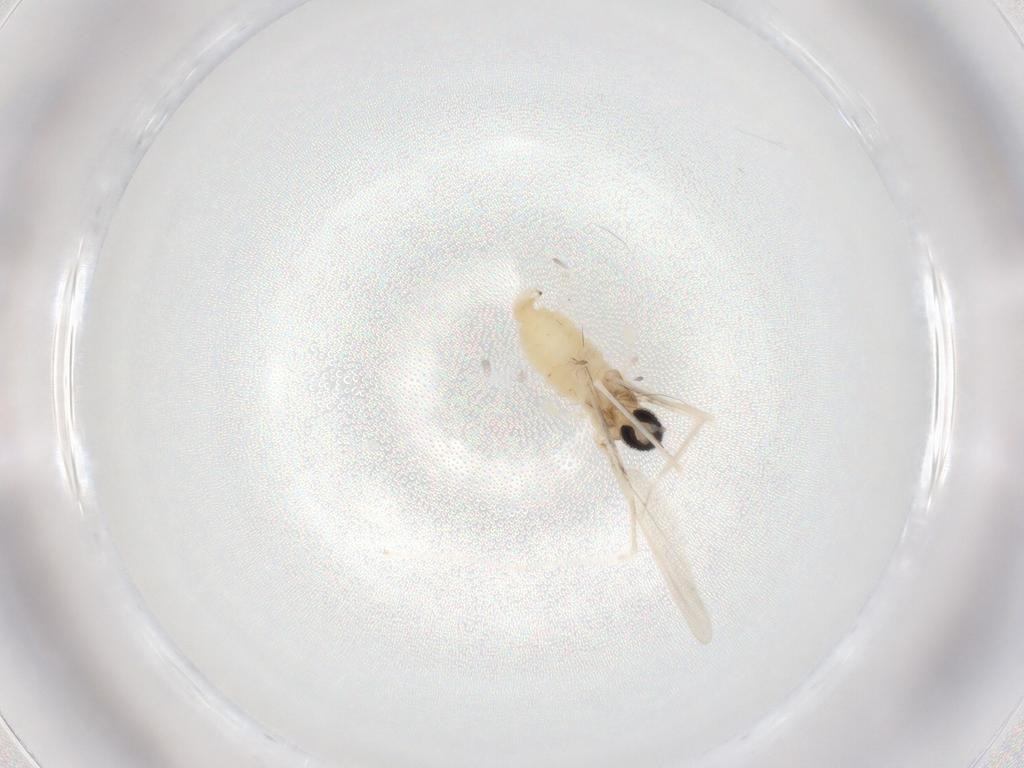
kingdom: Animalia
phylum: Arthropoda
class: Insecta
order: Diptera
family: Cecidomyiidae
